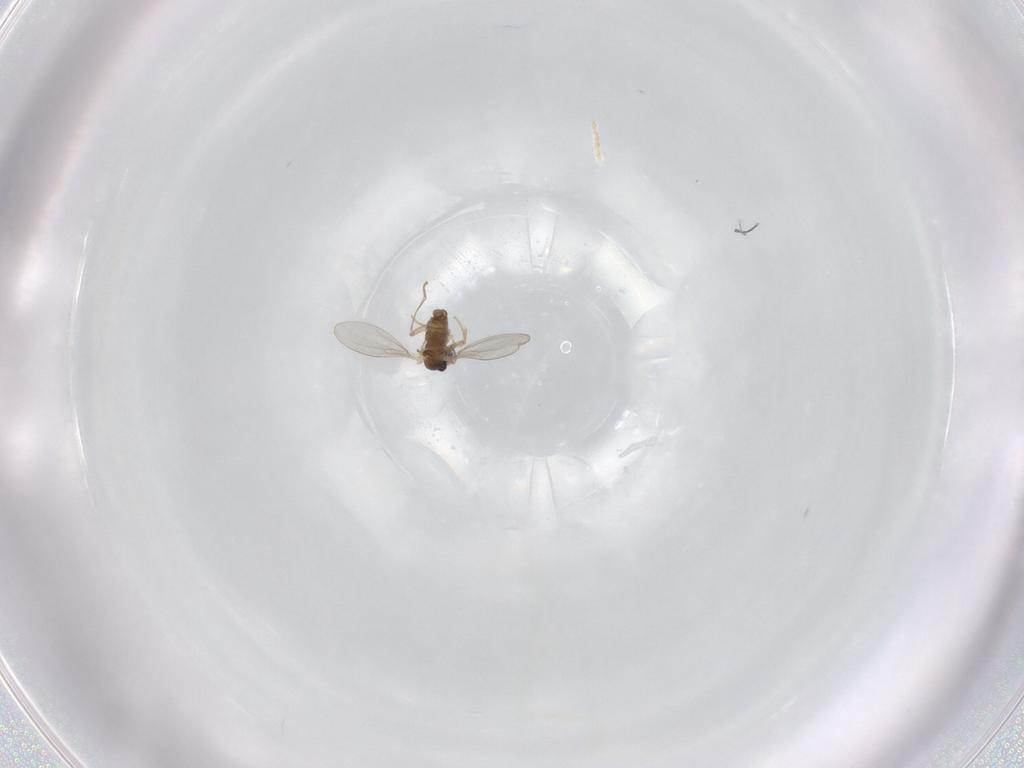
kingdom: Animalia
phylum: Arthropoda
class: Insecta
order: Diptera
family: Cecidomyiidae
